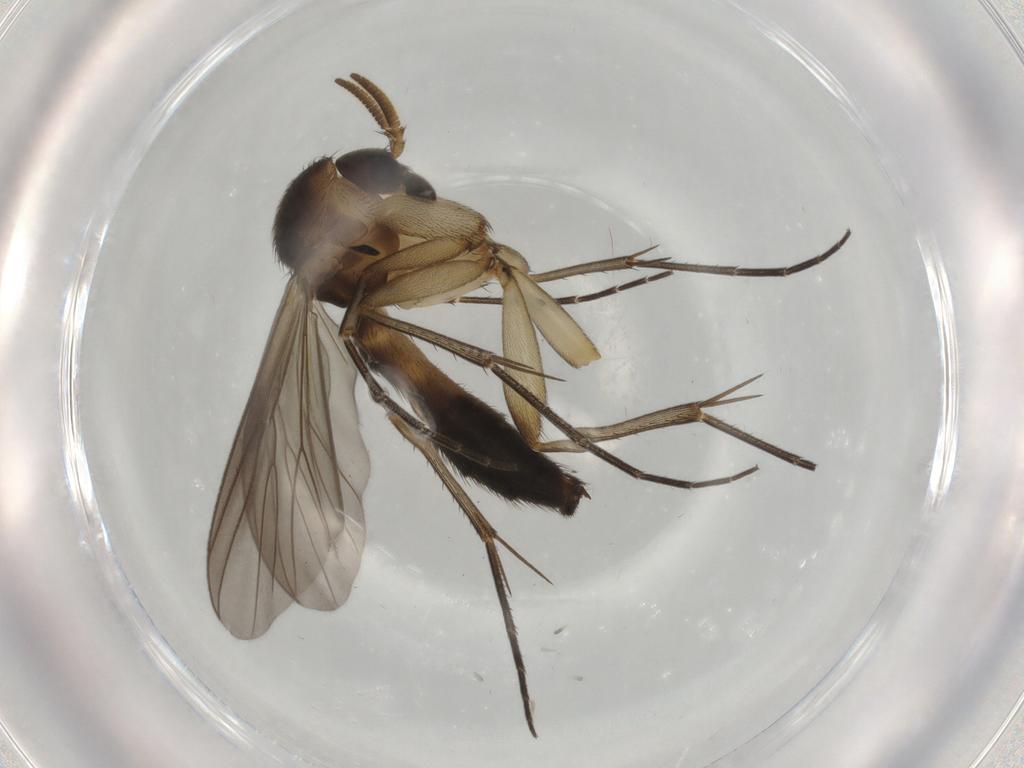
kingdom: Animalia
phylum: Arthropoda
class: Insecta
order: Diptera
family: Mycetophilidae
